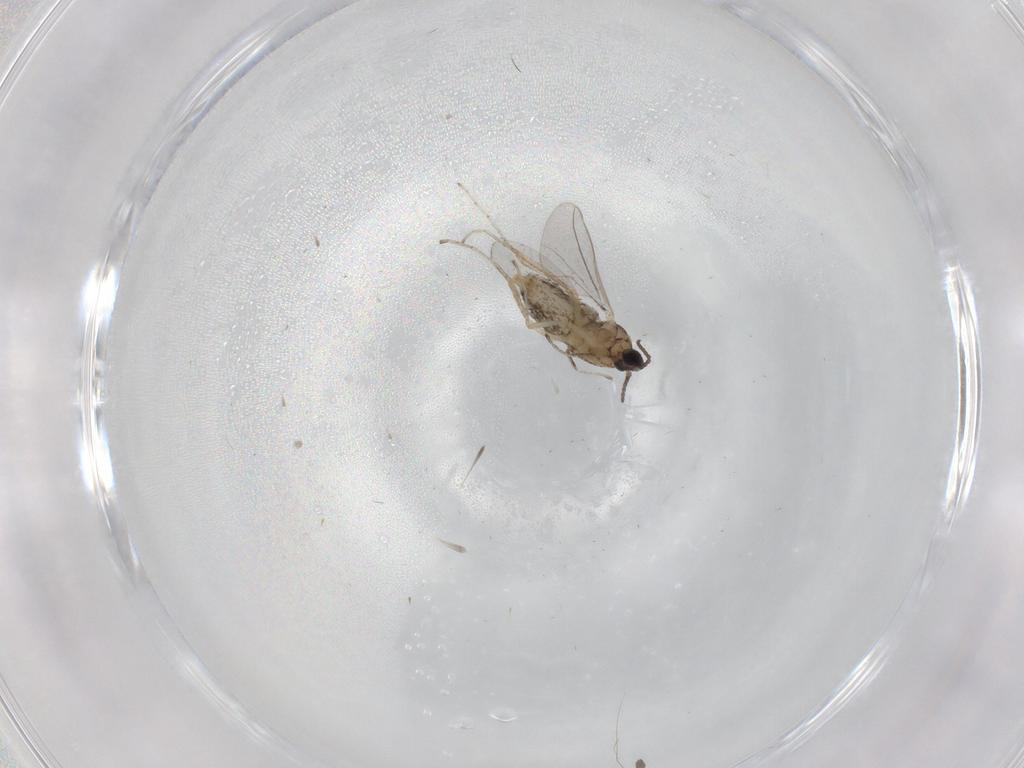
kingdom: Animalia
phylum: Arthropoda
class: Insecta
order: Diptera
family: Cecidomyiidae
